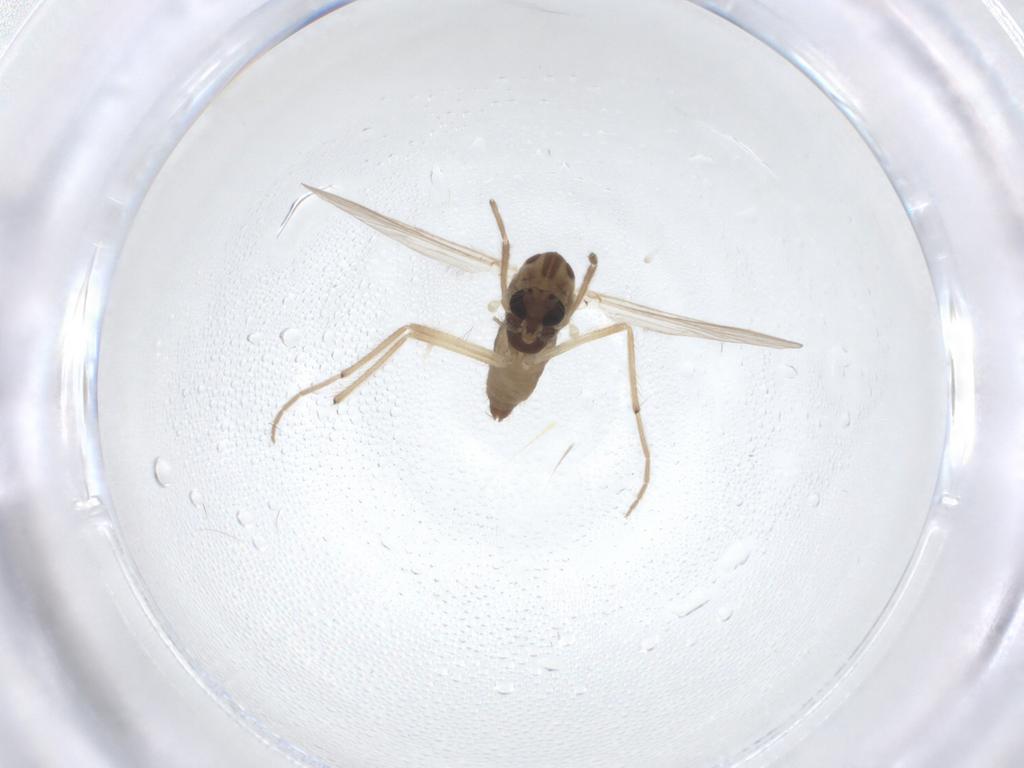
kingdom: Animalia
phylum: Arthropoda
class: Insecta
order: Diptera
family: Chironomidae
